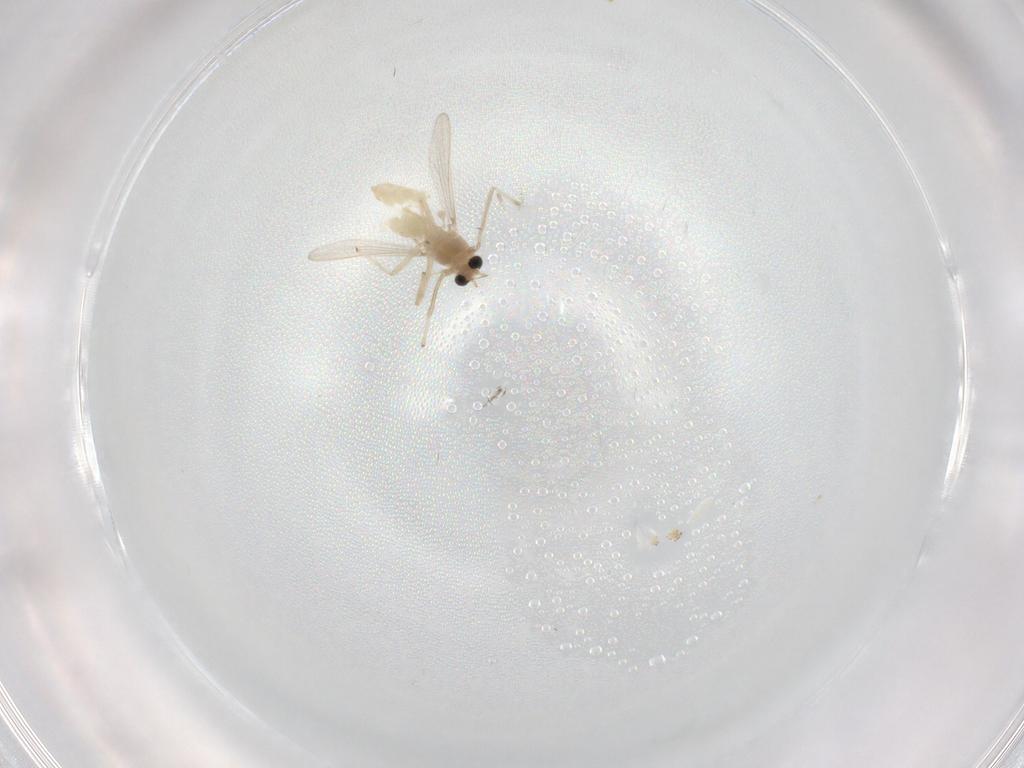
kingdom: Animalia
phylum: Arthropoda
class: Insecta
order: Diptera
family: Chironomidae
